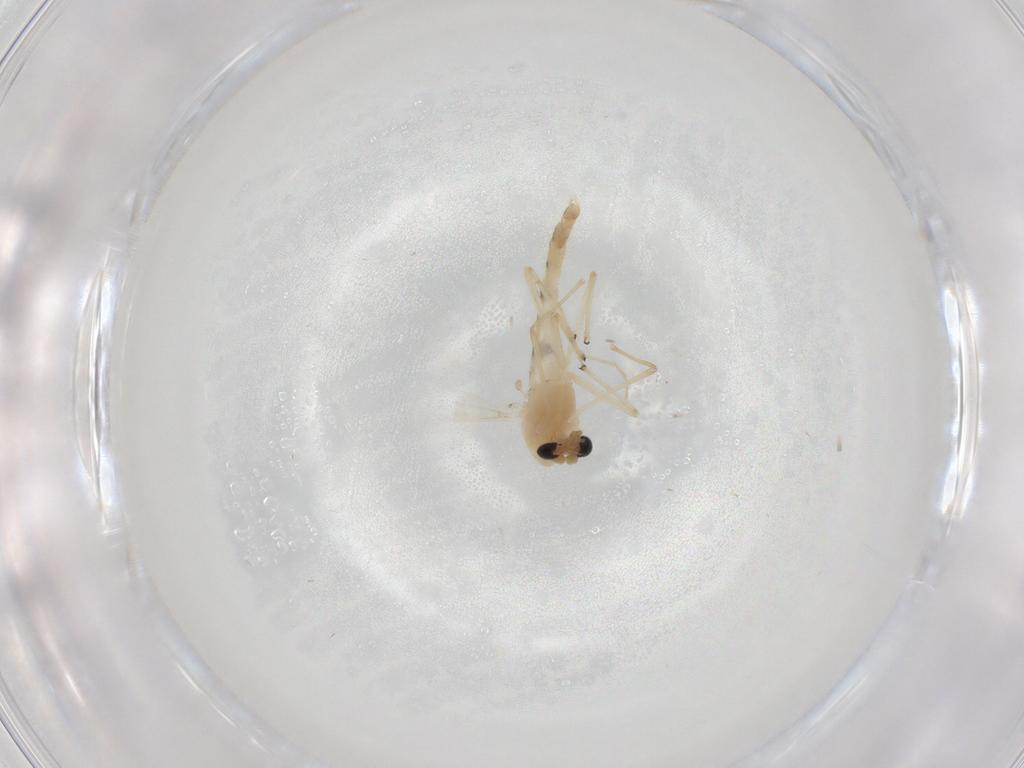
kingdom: Animalia
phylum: Arthropoda
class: Insecta
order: Diptera
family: Chironomidae
